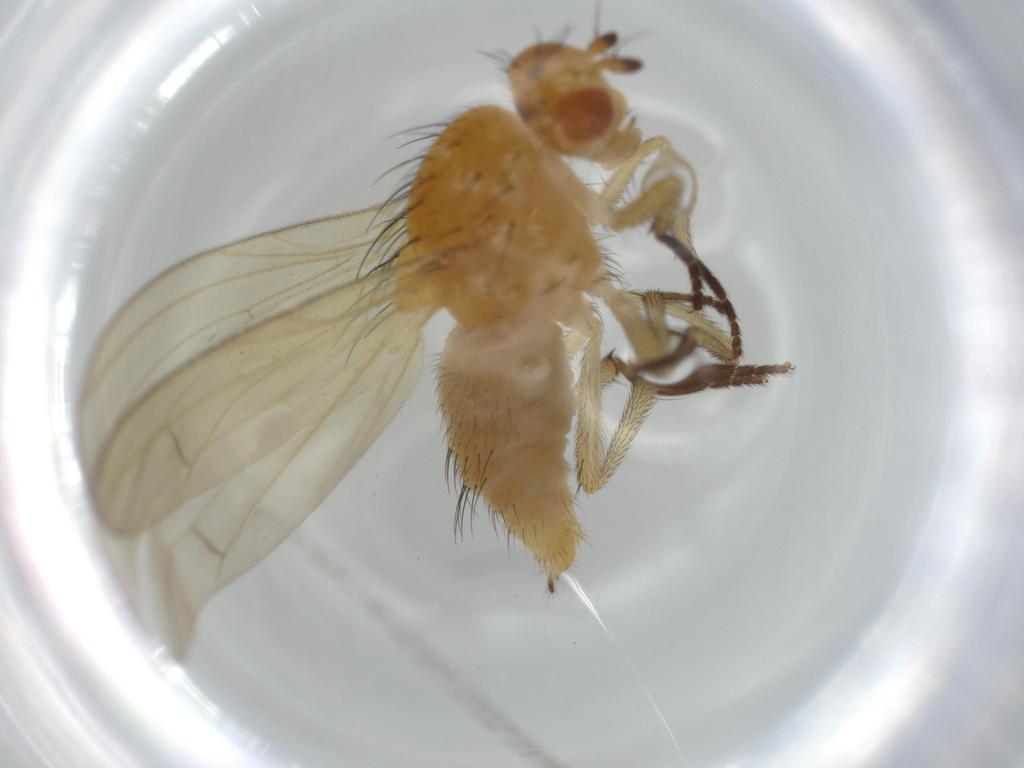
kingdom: Animalia
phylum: Arthropoda
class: Insecta
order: Diptera
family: Lauxaniidae
